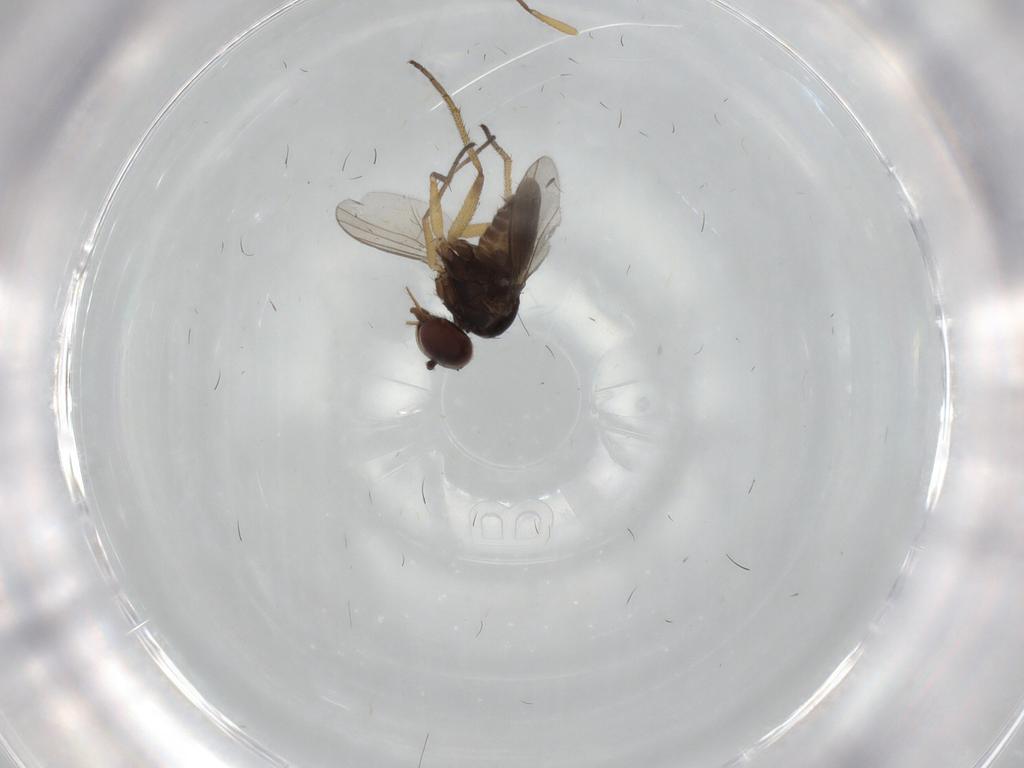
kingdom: Animalia
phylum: Arthropoda
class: Insecta
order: Diptera
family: Dolichopodidae
